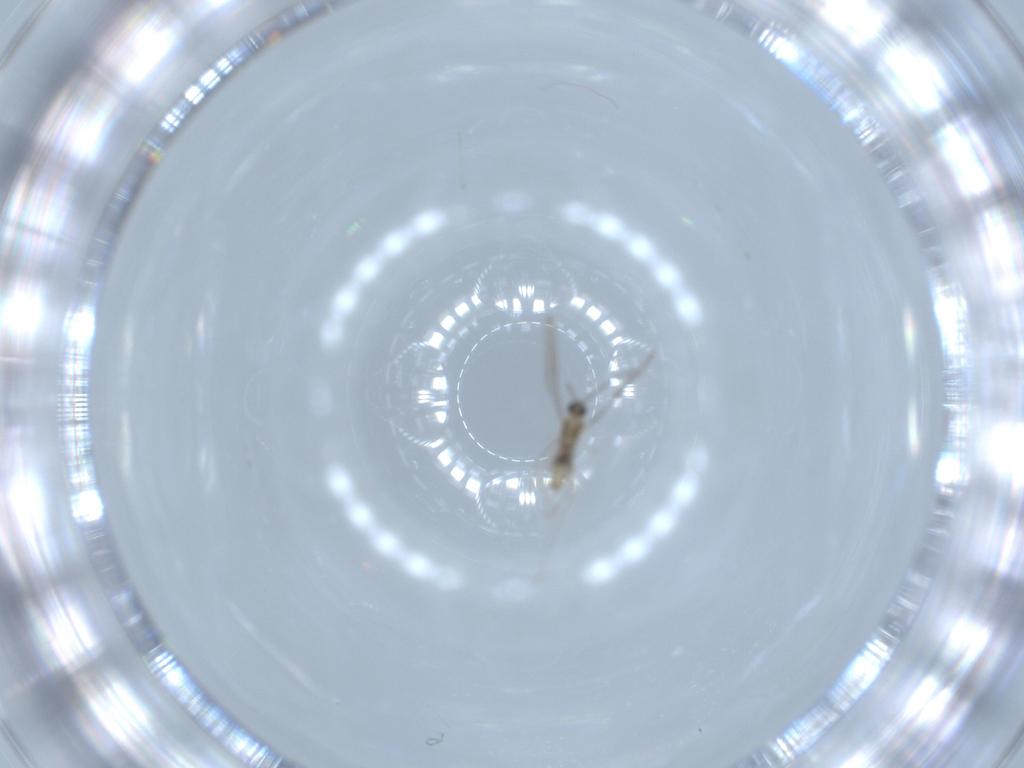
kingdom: Animalia
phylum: Arthropoda
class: Insecta
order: Diptera
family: Cecidomyiidae
